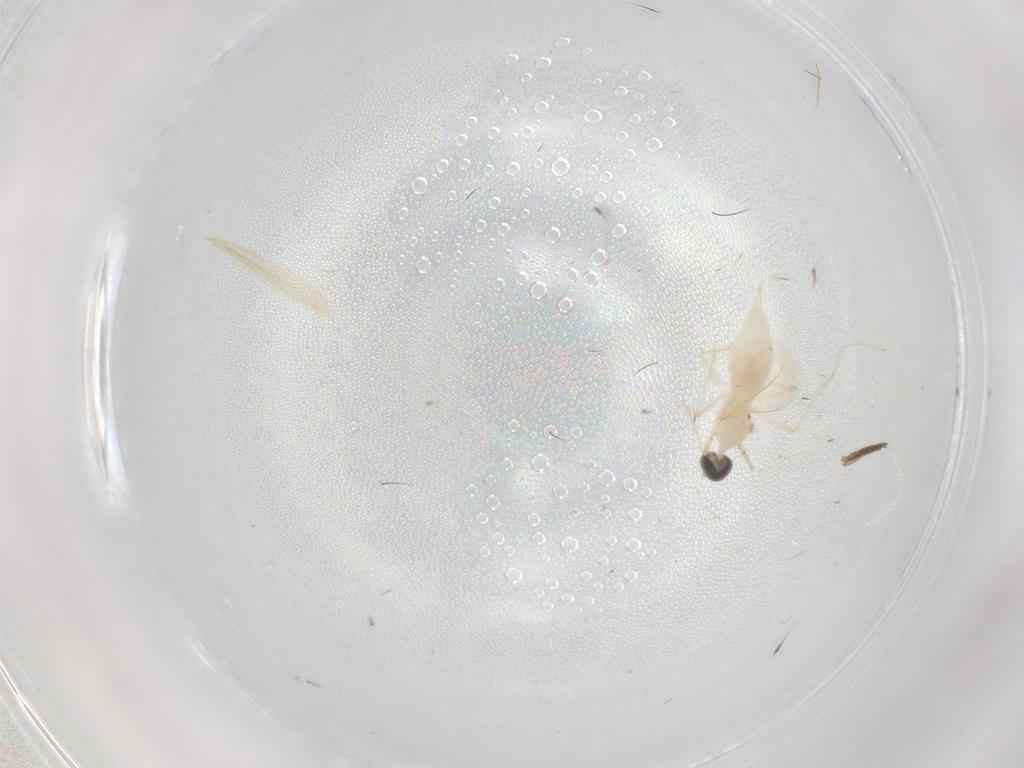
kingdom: Animalia
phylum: Arthropoda
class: Insecta
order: Diptera
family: Cecidomyiidae
